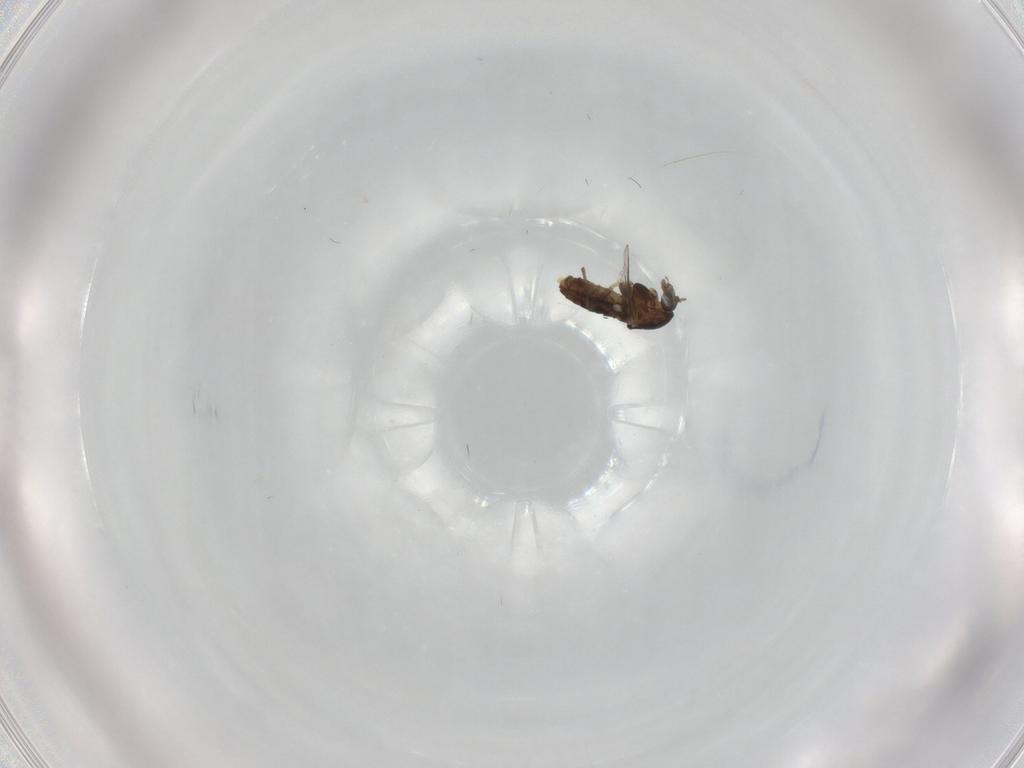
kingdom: Animalia
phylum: Arthropoda
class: Insecta
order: Diptera
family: Chironomidae
